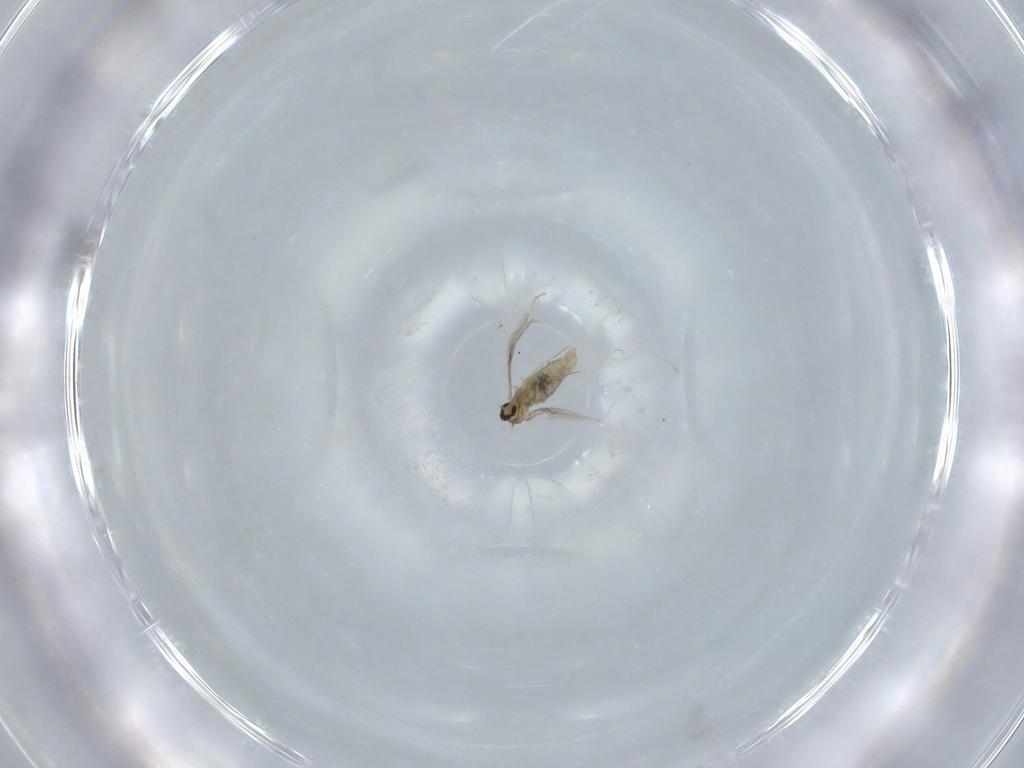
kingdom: Animalia
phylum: Arthropoda
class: Insecta
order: Diptera
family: Cecidomyiidae
